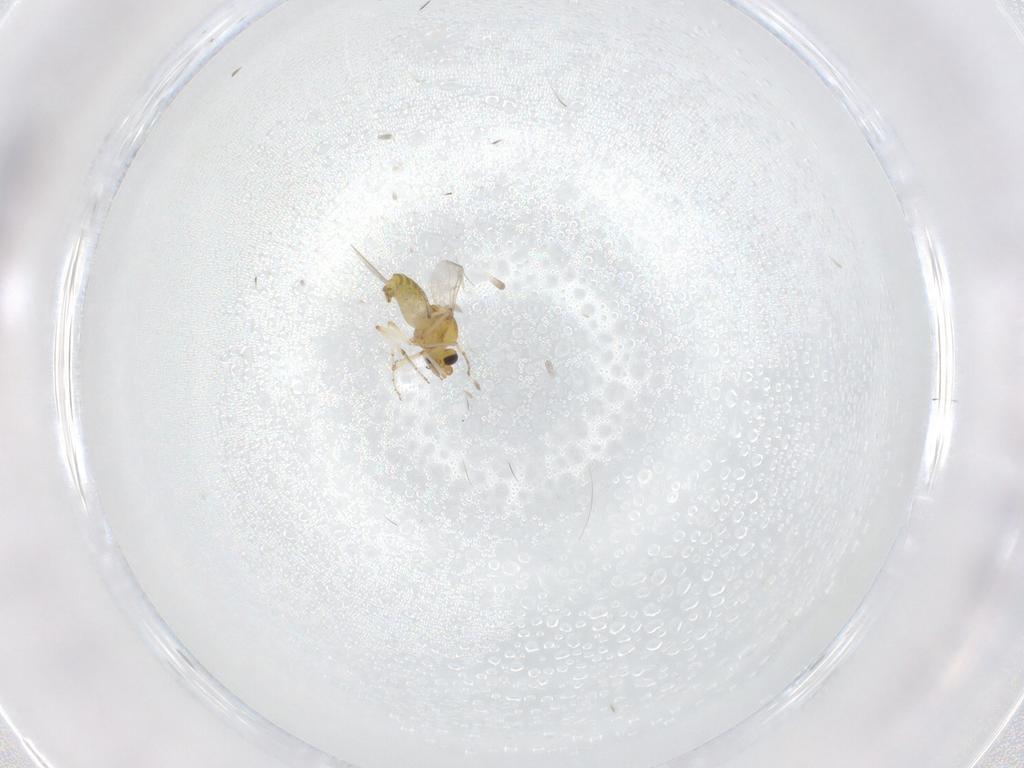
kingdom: Animalia
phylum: Arthropoda
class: Insecta
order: Diptera
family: Chironomidae
